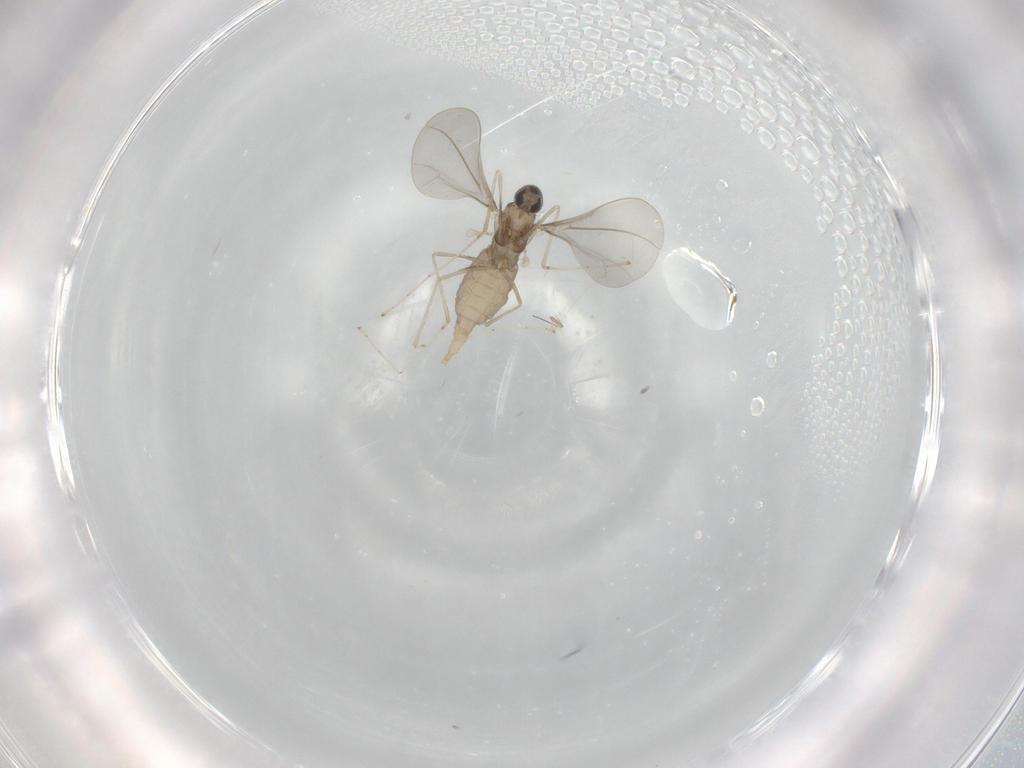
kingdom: Animalia
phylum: Arthropoda
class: Insecta
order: Diptera
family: Cecidomyiidae
